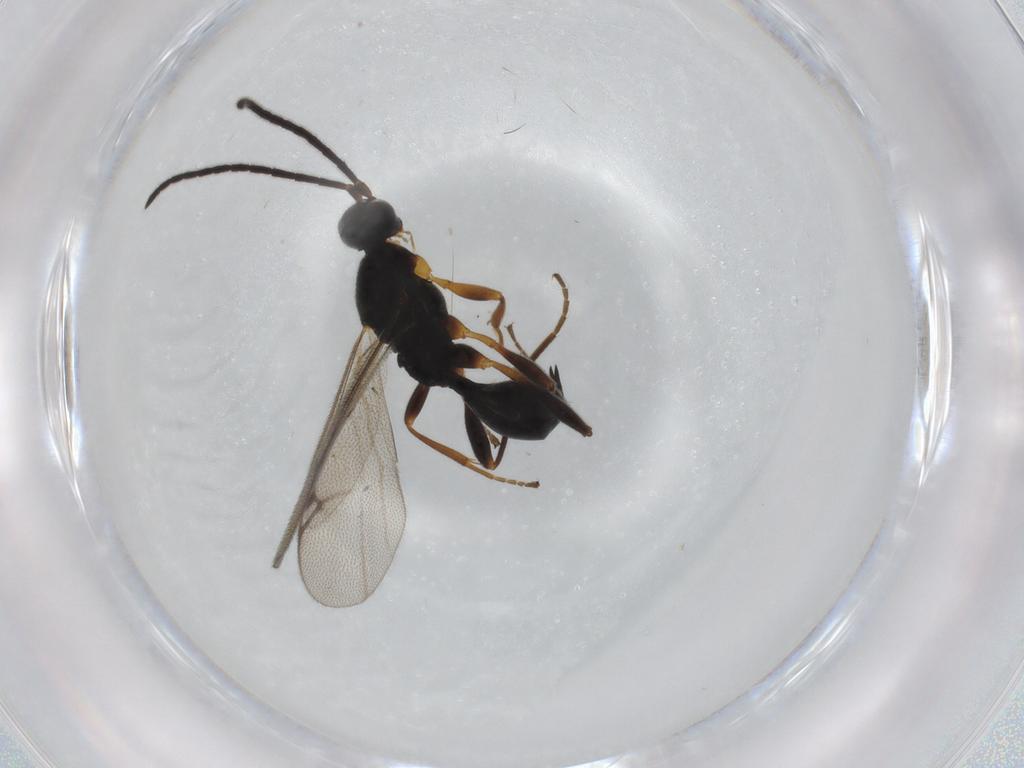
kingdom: Animalia
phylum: Arthropoda
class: Insecta
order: Hymenoptera
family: Proctotrupidae
